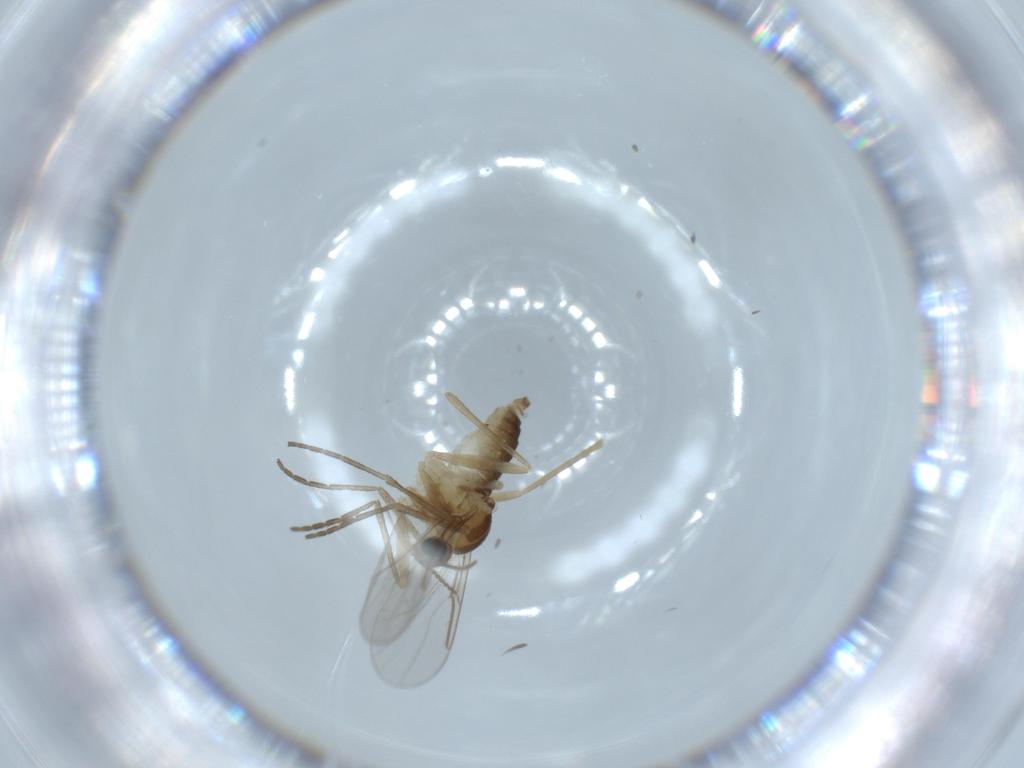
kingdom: Animalia
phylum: Arthropoda
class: Insecta
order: Diptera
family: Cecidomyiidae
